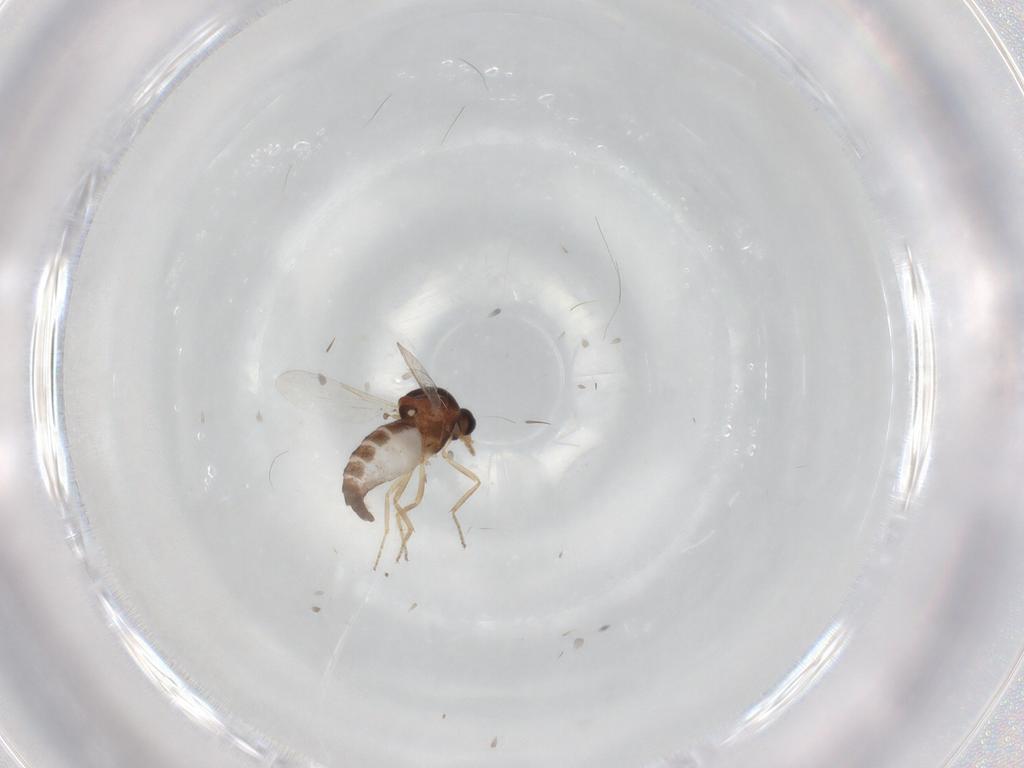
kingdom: Animalia
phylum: Arthropoda
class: Insecta
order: Diptera
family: Ceratopogonidae
